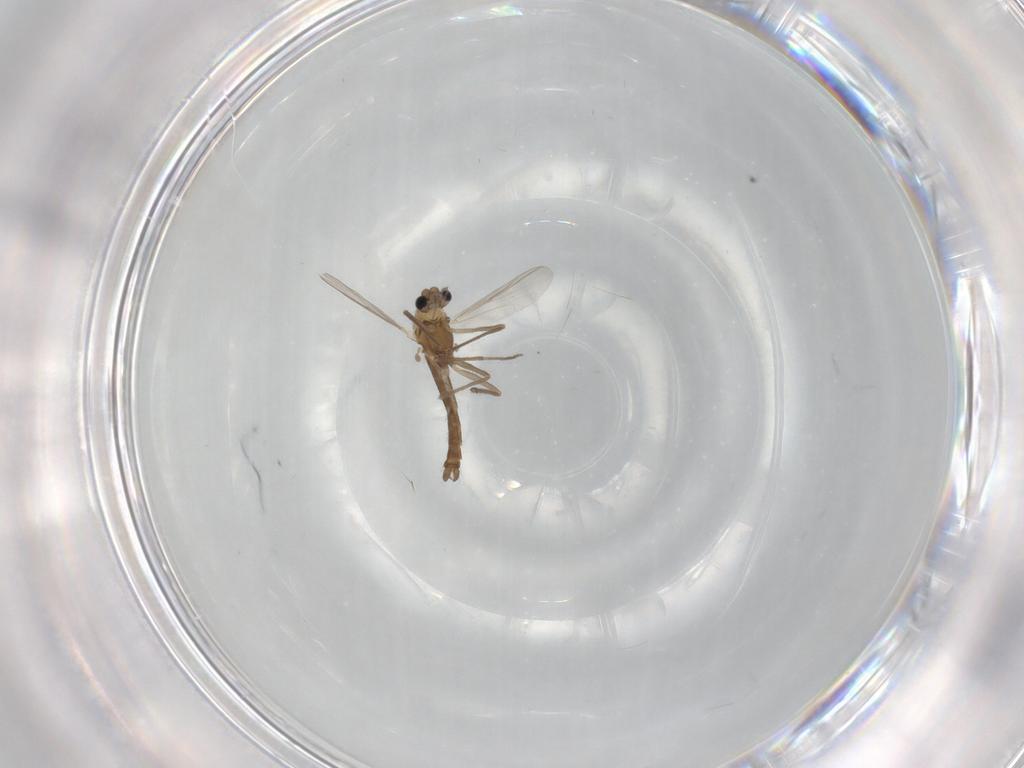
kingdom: Animalia
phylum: Arthropoda
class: Insecta
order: Diptera
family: Chironomidae
